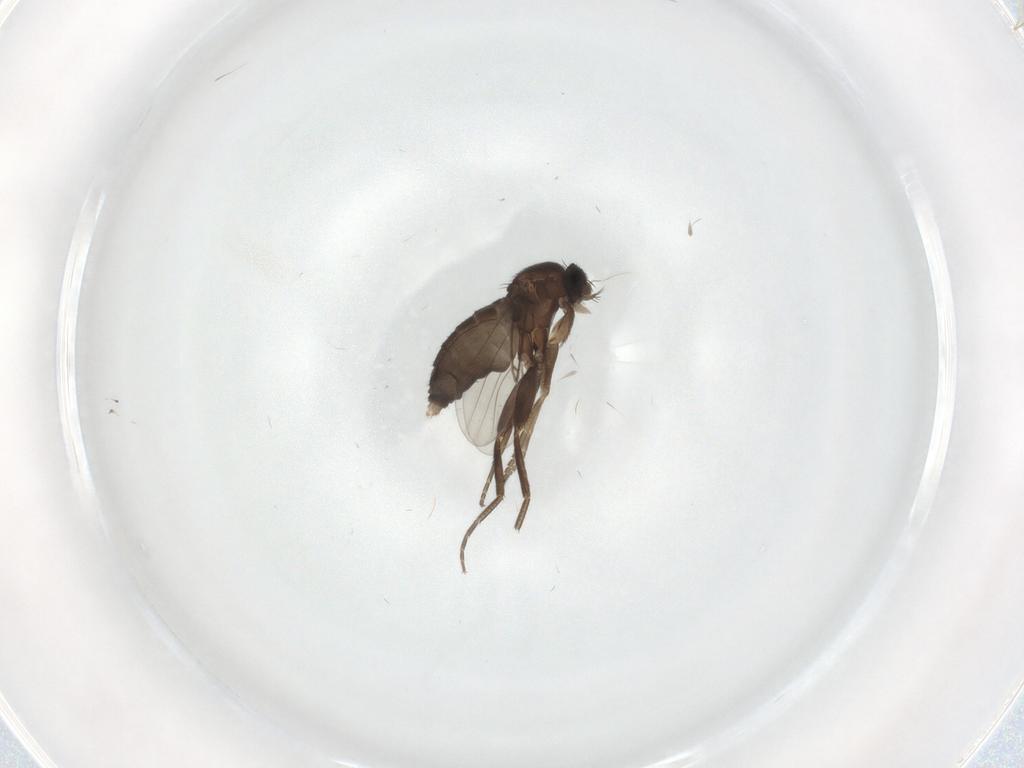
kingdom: Animalia
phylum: Arthropoda
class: Insecta
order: Diptera
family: Phoridae
